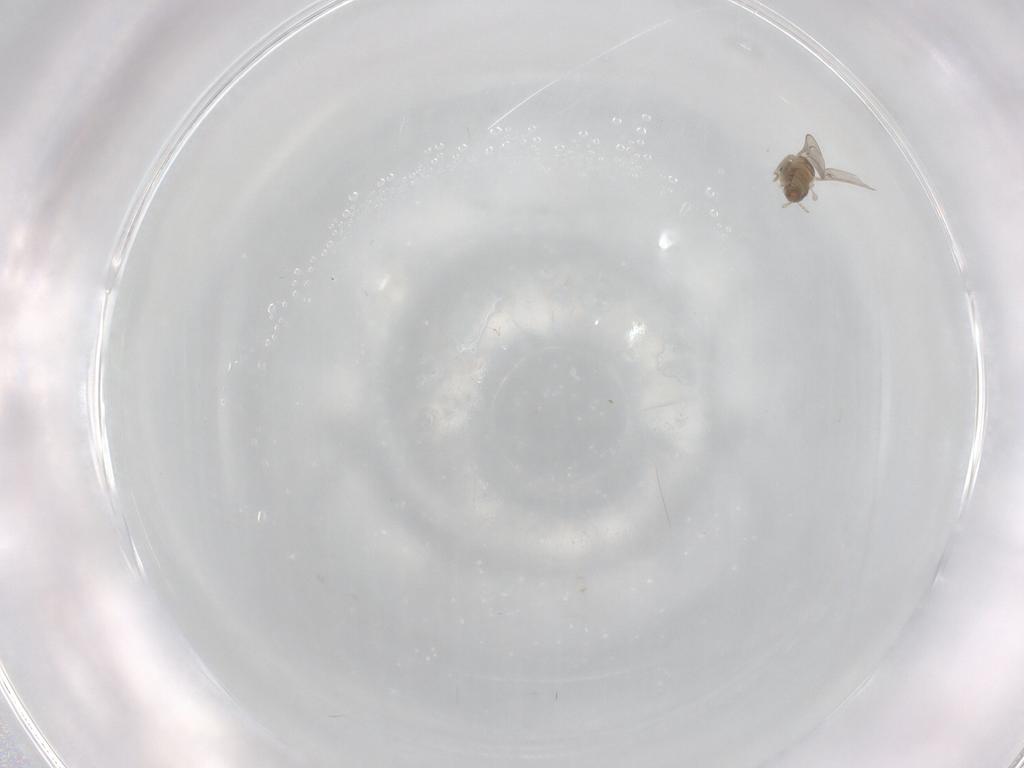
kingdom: Animalia
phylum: Arthropoda
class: Insecta
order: Diptera
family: Cecidomyiidae
